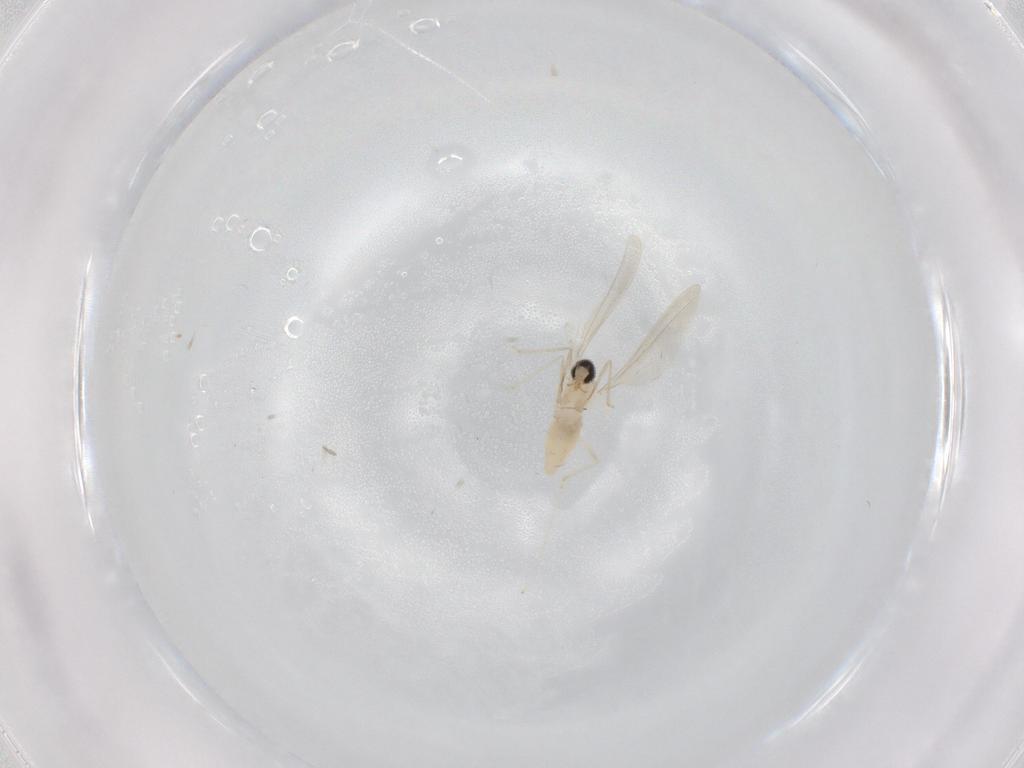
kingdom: Animalia
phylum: Arthropoda
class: Insecta
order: Diptera
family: Cecidomyiidae
